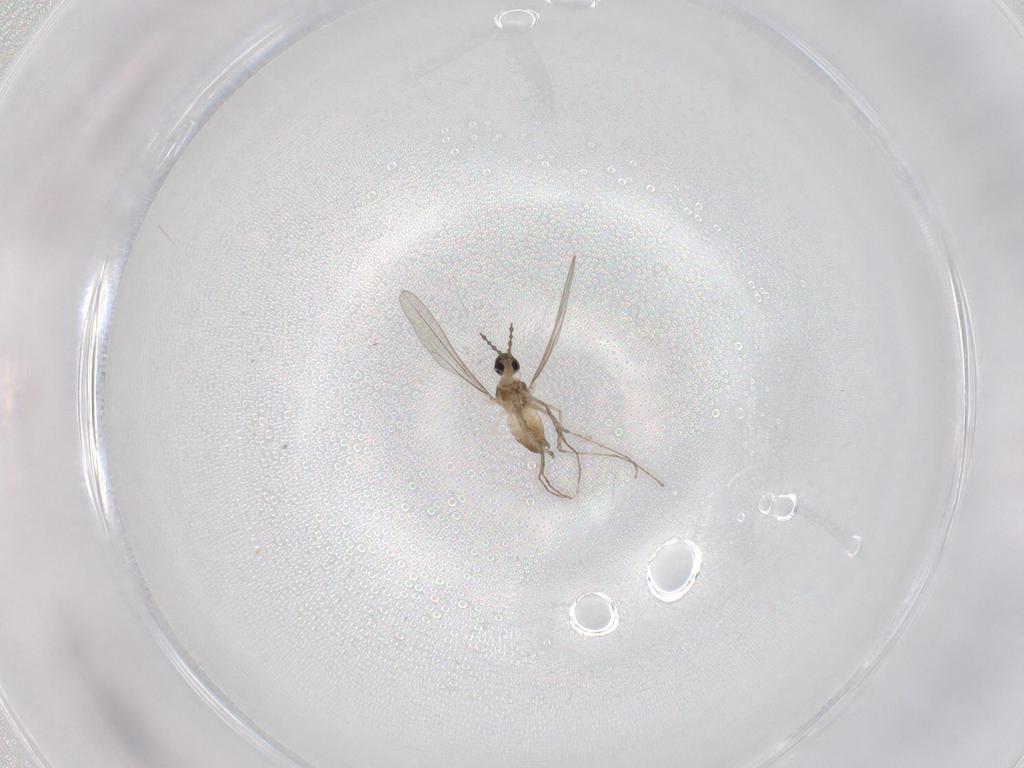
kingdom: Animalia
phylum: Arthropoda
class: Insecta
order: Diptera
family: Cecidomyiidae
